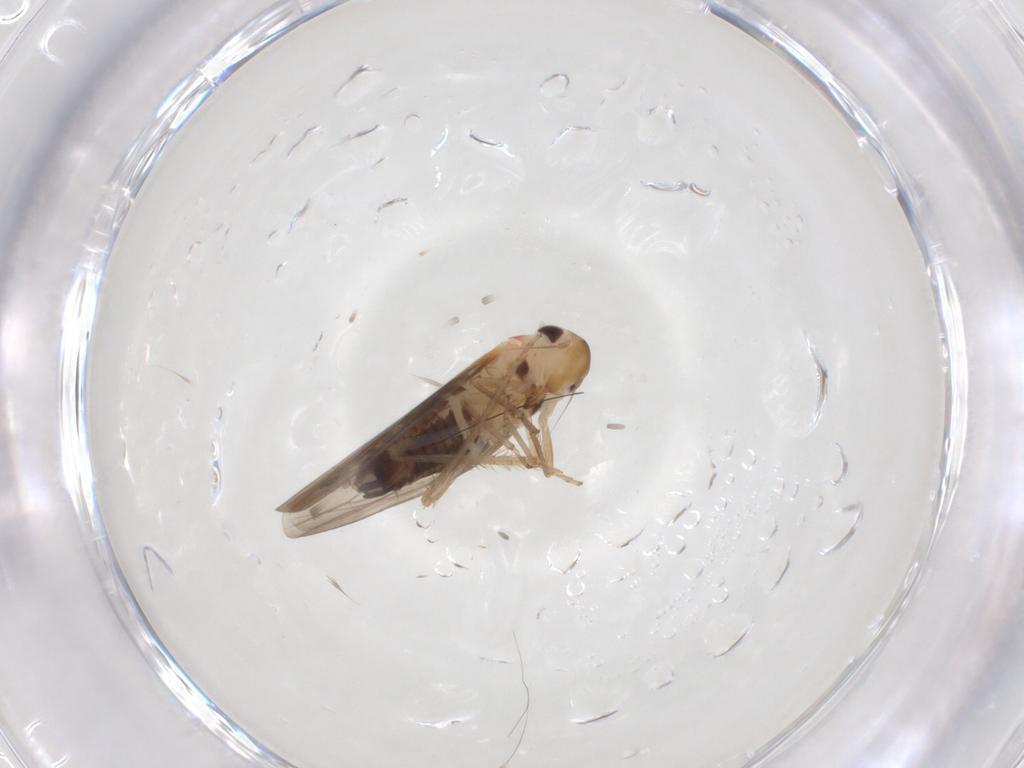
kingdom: Animalia
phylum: Arthropoda
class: Insecta
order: Hemiptera
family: Cicadellidae
